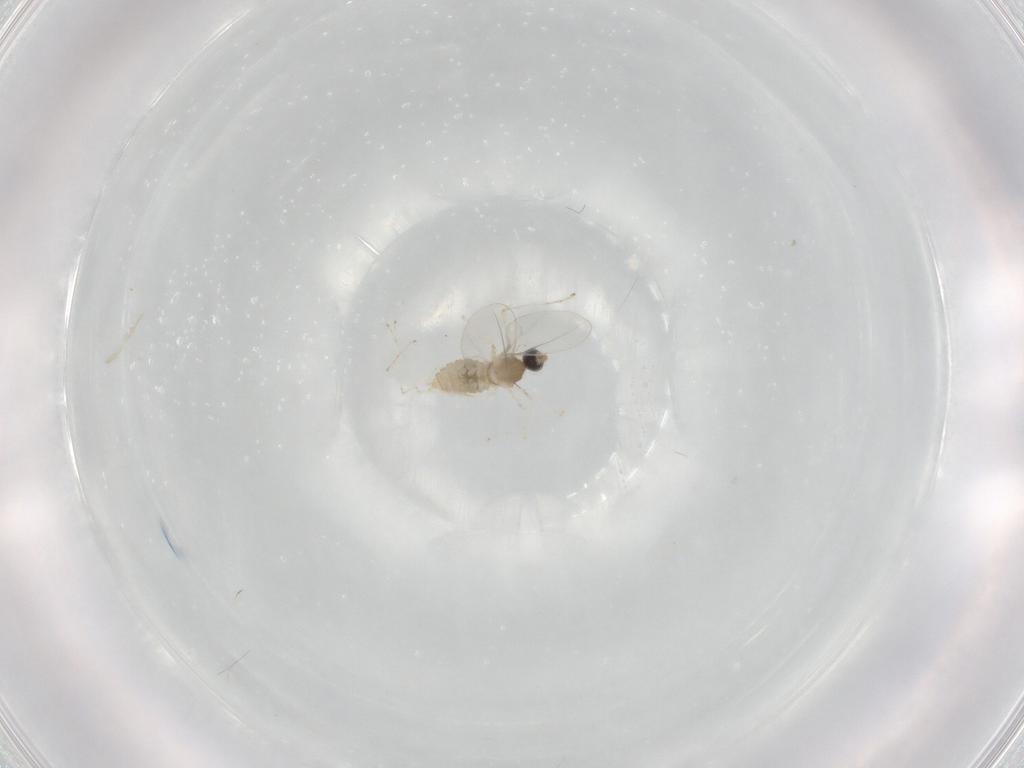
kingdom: Animalia
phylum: Arthropoda
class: Insecta
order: Diptera
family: Cecidomyiidae
